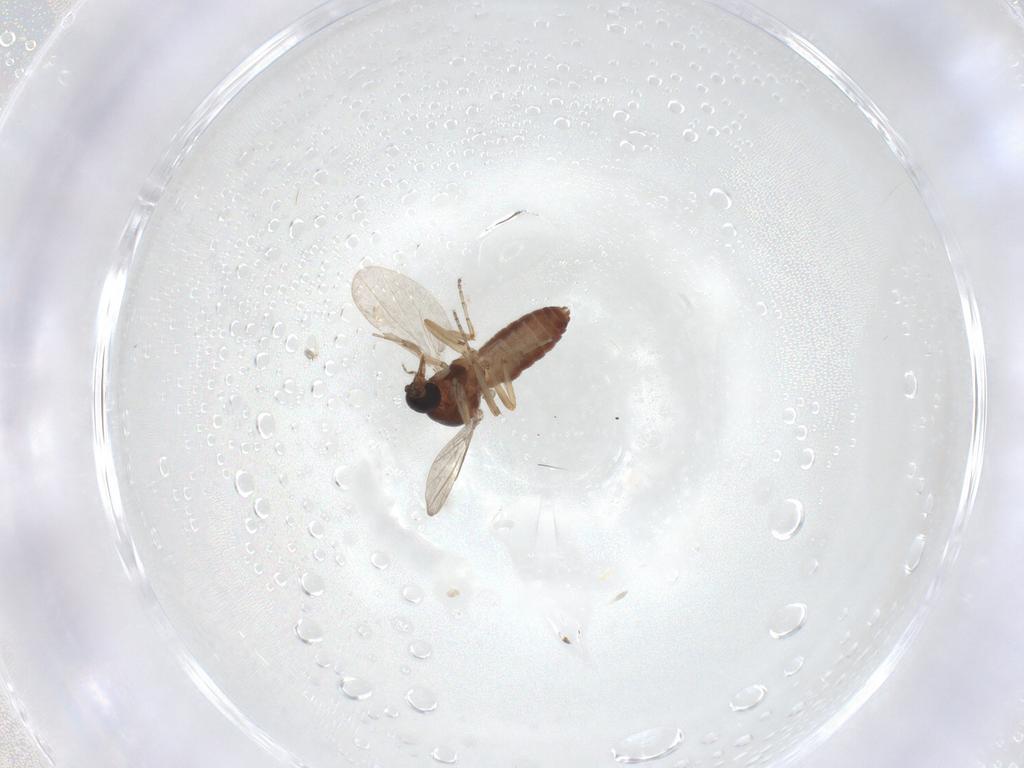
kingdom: Animalia
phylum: Arthropoda
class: Insecta
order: Diptera
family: Ceratopogonidae
